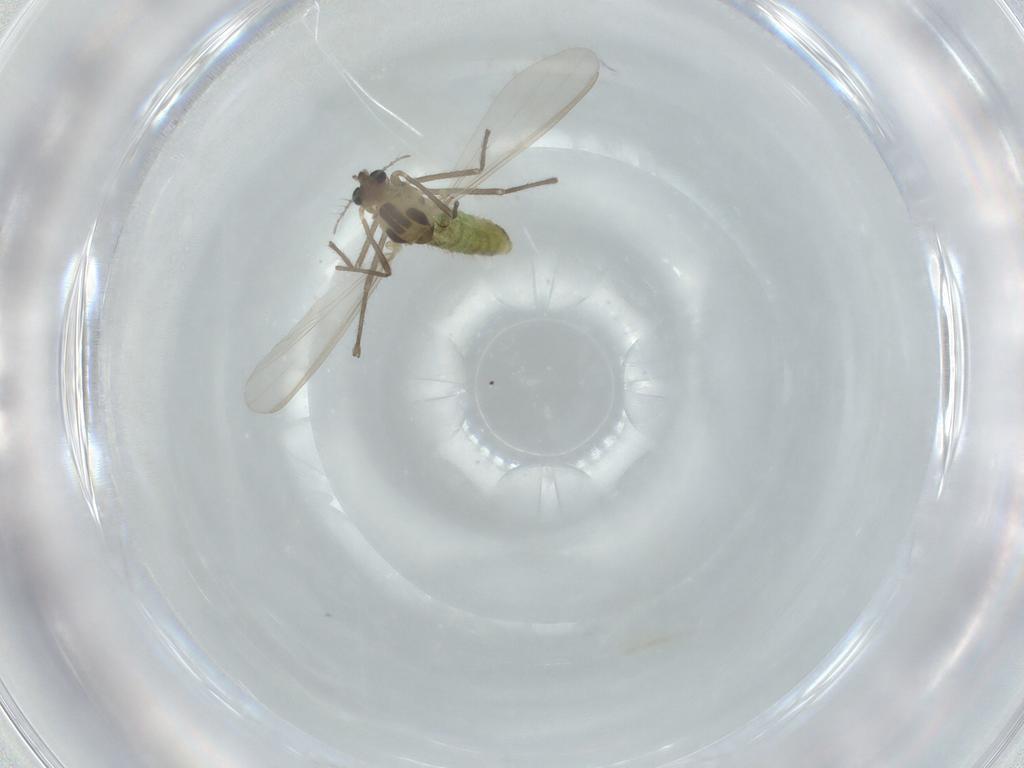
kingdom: Animalia
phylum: Arthropoda
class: Insecta
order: Diptera
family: Chironomidae
